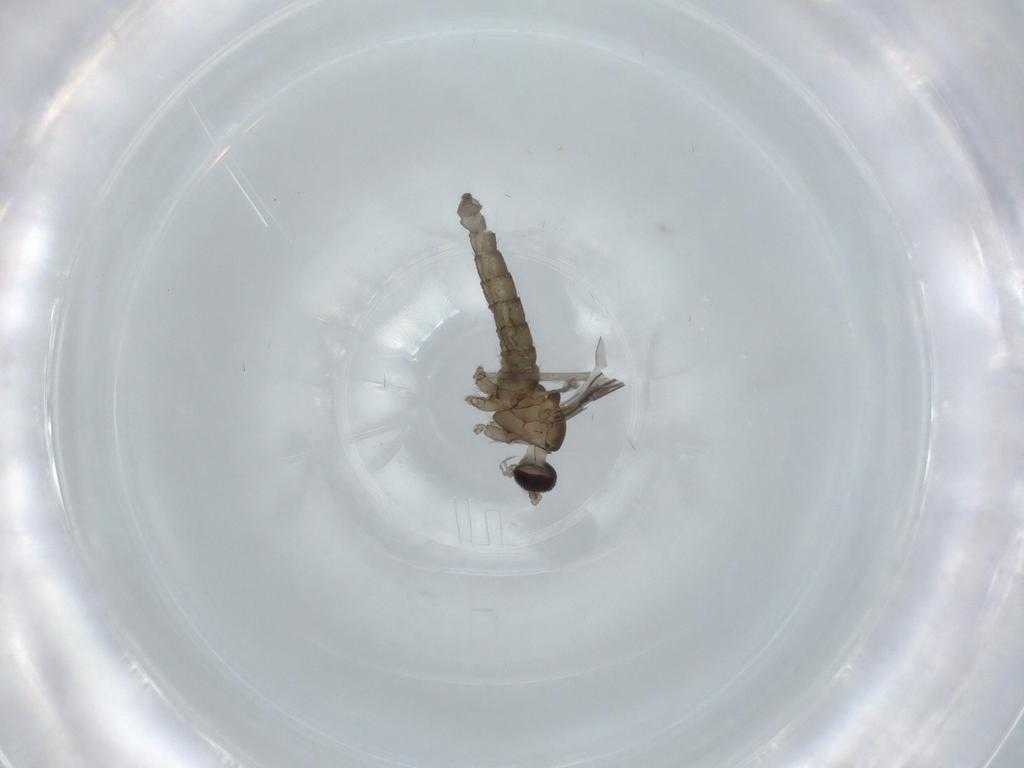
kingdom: Animalia
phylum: Arthropoda
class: Insecta
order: Diptera
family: Cecidomyiidae
